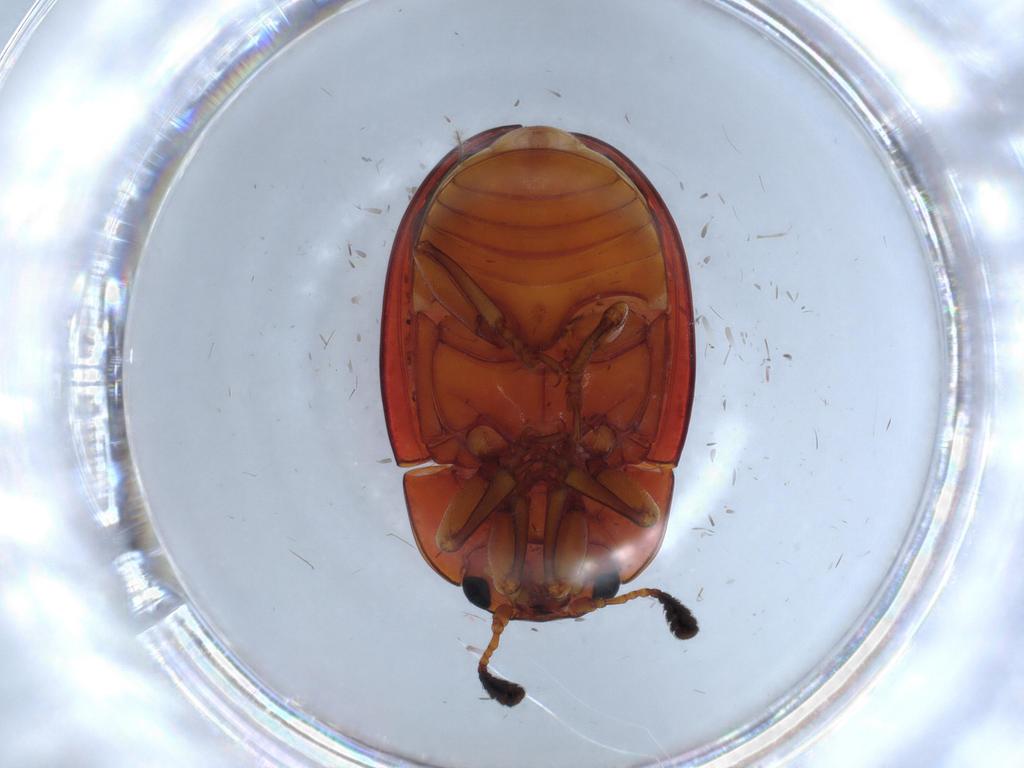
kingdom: Animalia
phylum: Arthropoda
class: Insecta
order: Coleoptera
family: Erotylidae
